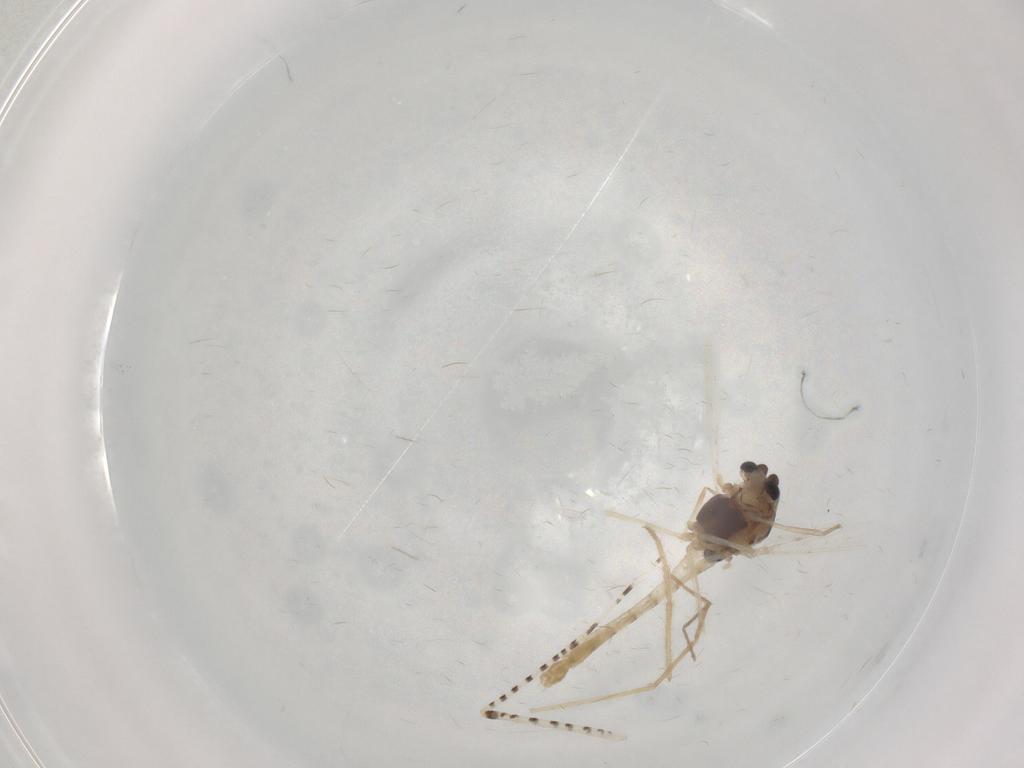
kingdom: Animalia
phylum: Arthropoda
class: Insecta
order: Diptera
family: Chironomidae
